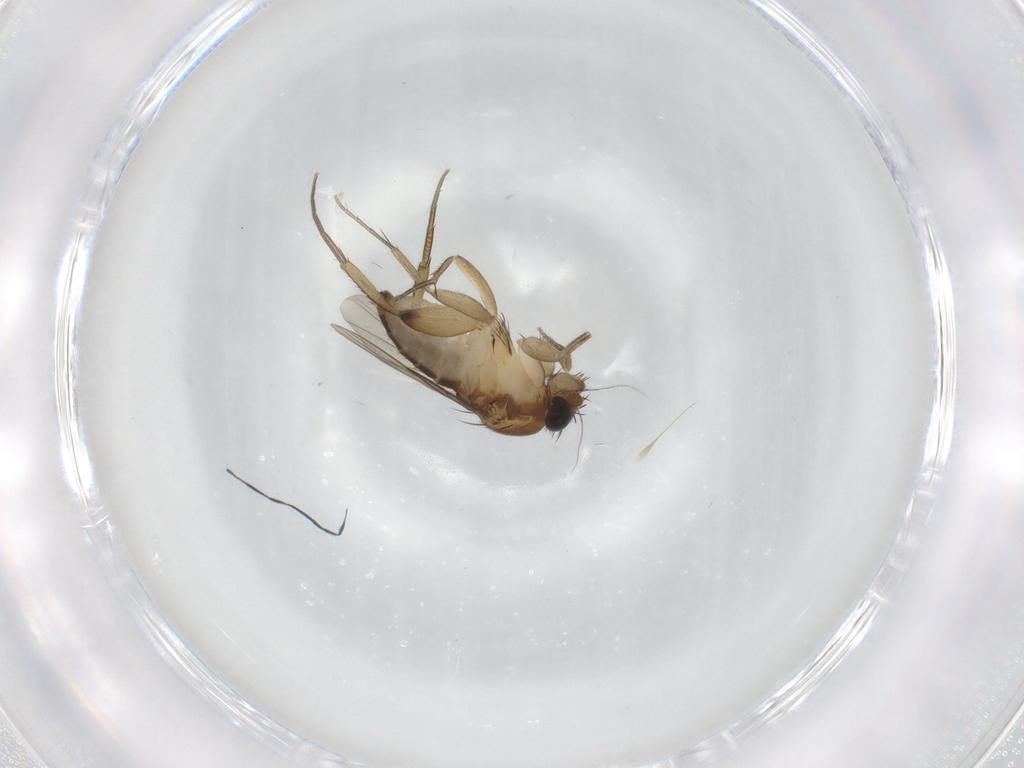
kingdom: Animalia
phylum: Arthropoda
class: Insecta
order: Diptera
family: Phoridae
